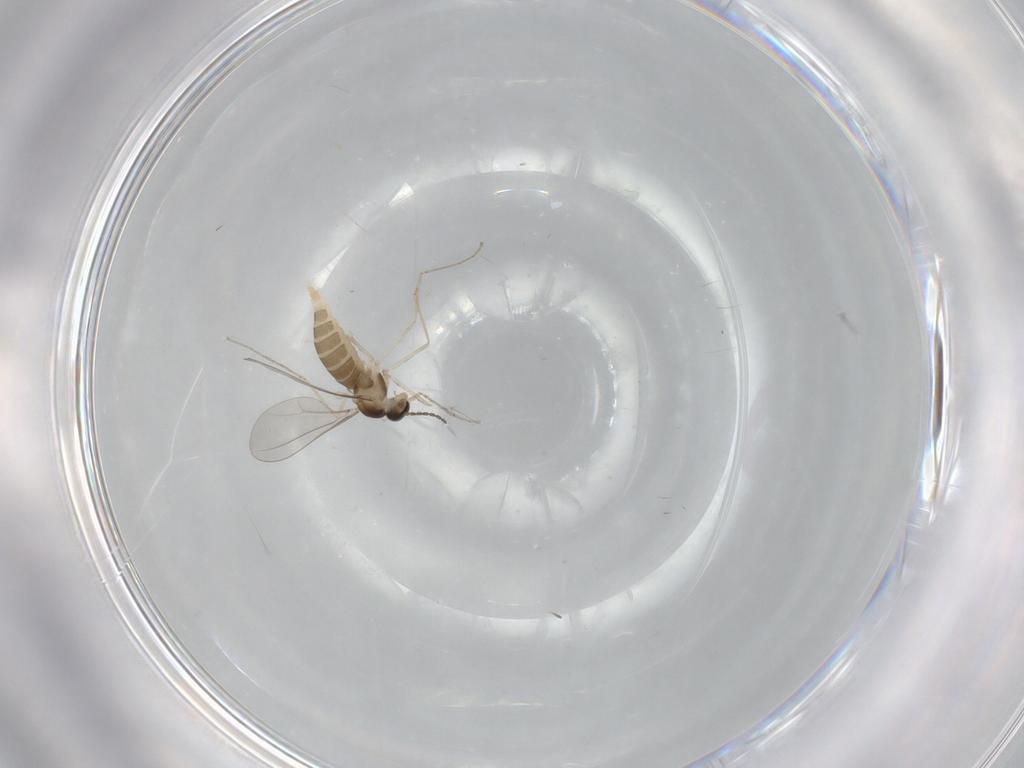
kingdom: Animalia
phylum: Arthropoda
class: Insecta
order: Diptera
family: Cecidomyiidae
